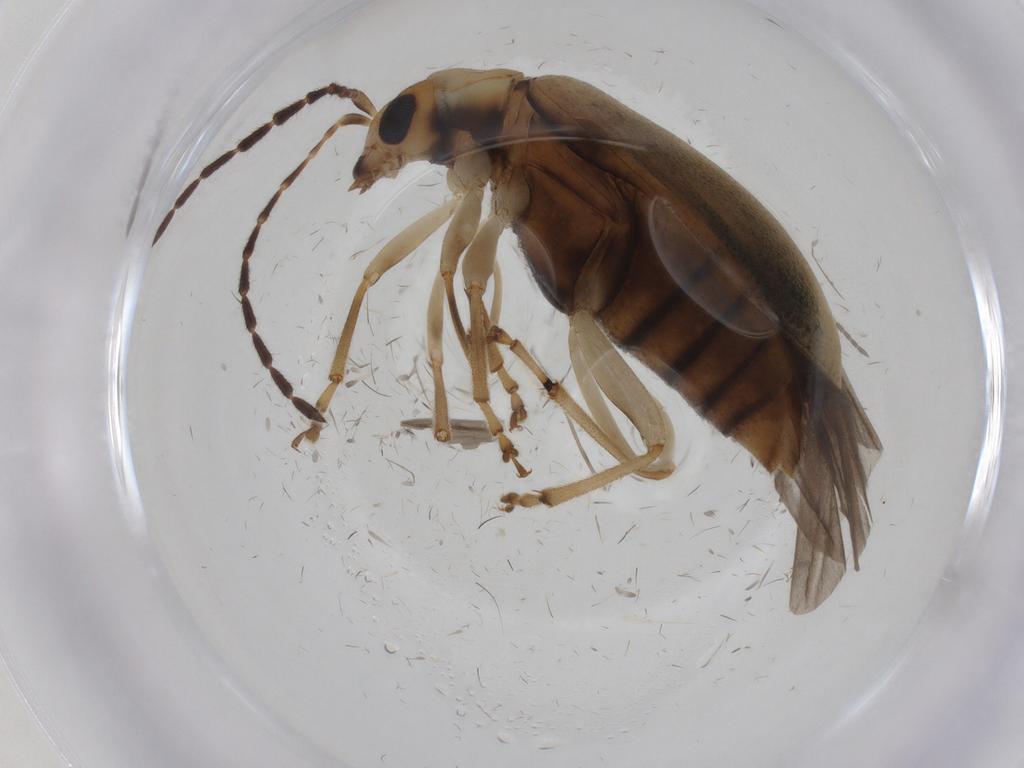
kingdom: Animalia
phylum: Arthropoda
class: Insecta
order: Coleoptera
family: Chrysomelidae
